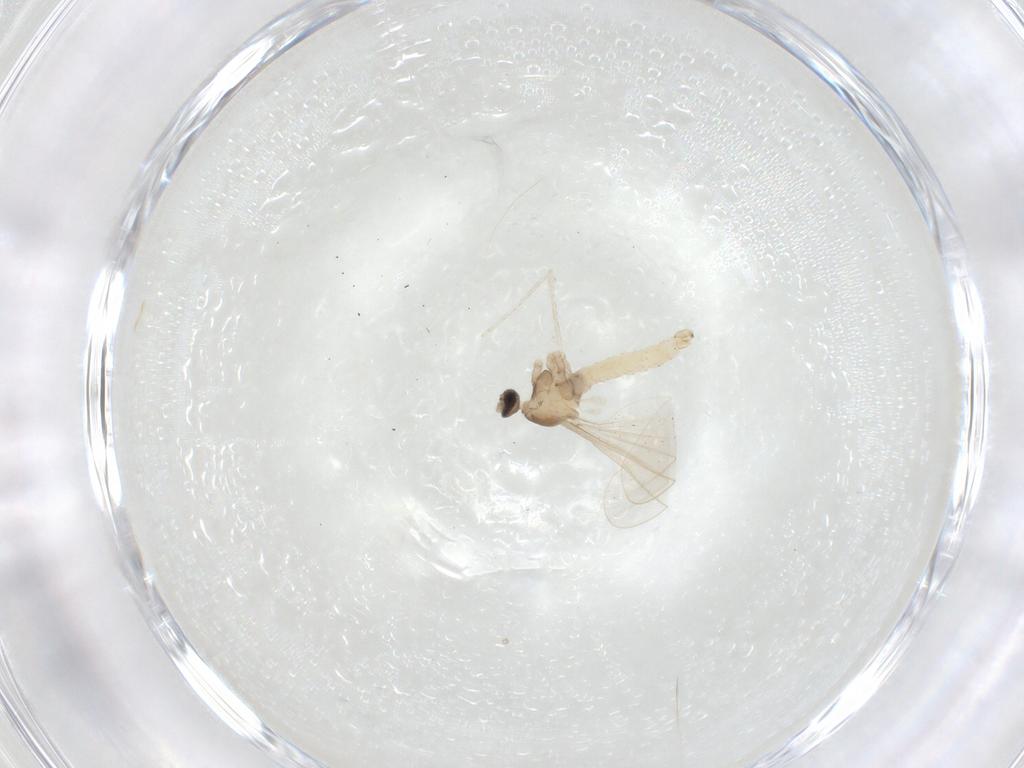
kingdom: Animalia
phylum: Arthropoda
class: Insecta
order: Diptera
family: Cecidomyiidae
